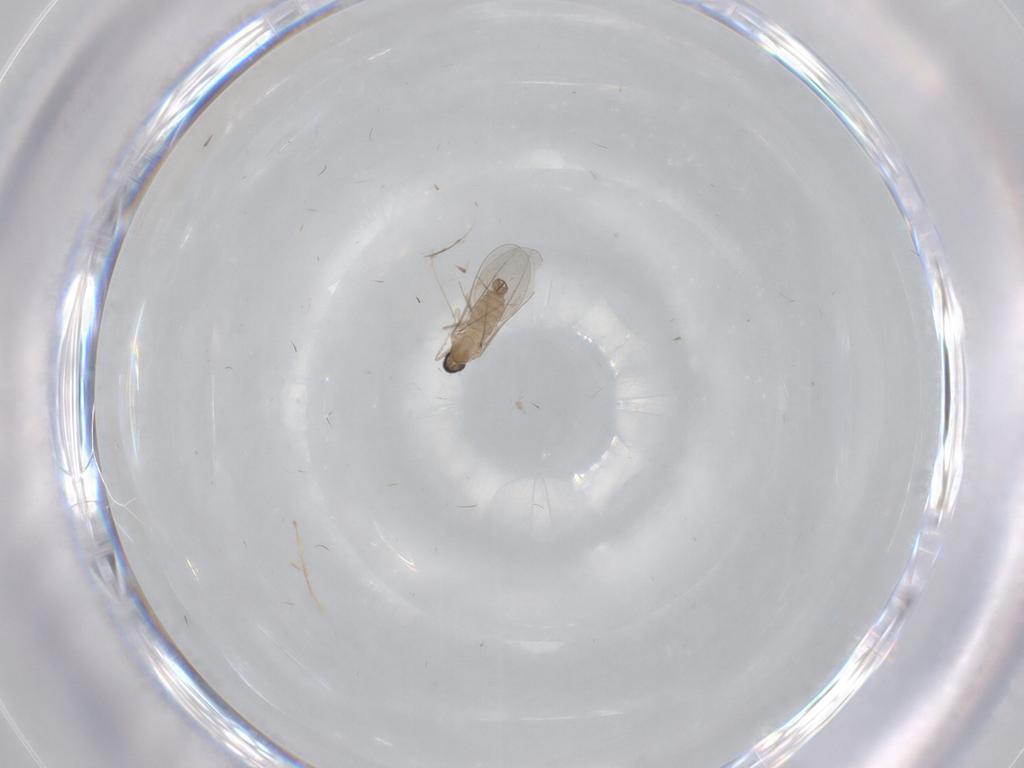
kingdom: Animalia
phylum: Arthropoda
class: Insecta
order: Diptera
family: Cecidomyiidae
